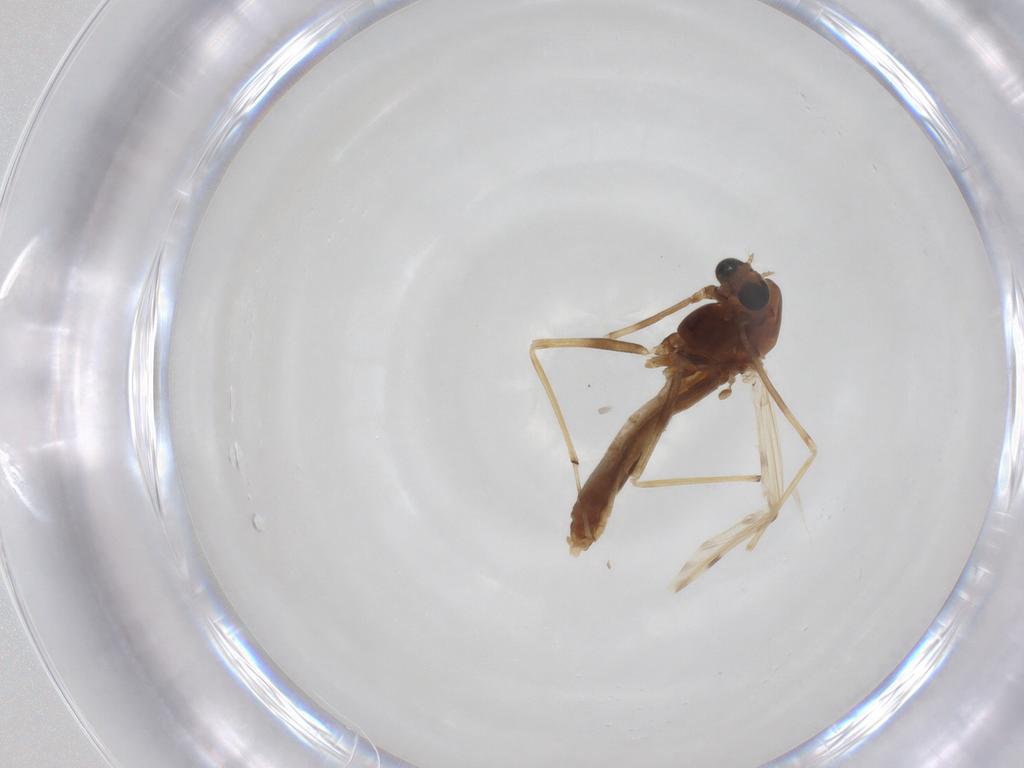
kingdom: Animalia
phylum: Arthropoda
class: Insecta
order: Diptera
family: Chironomidae
